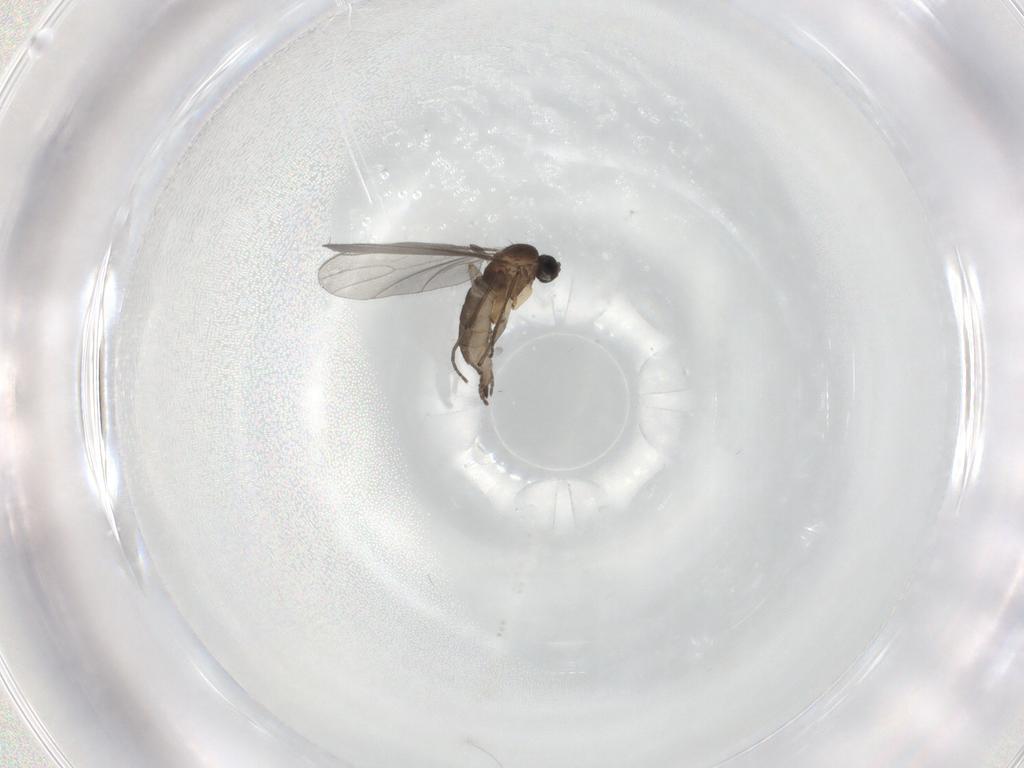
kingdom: Animalia
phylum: Arthropoda
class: Insecta
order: Diptera
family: Sciaridae
